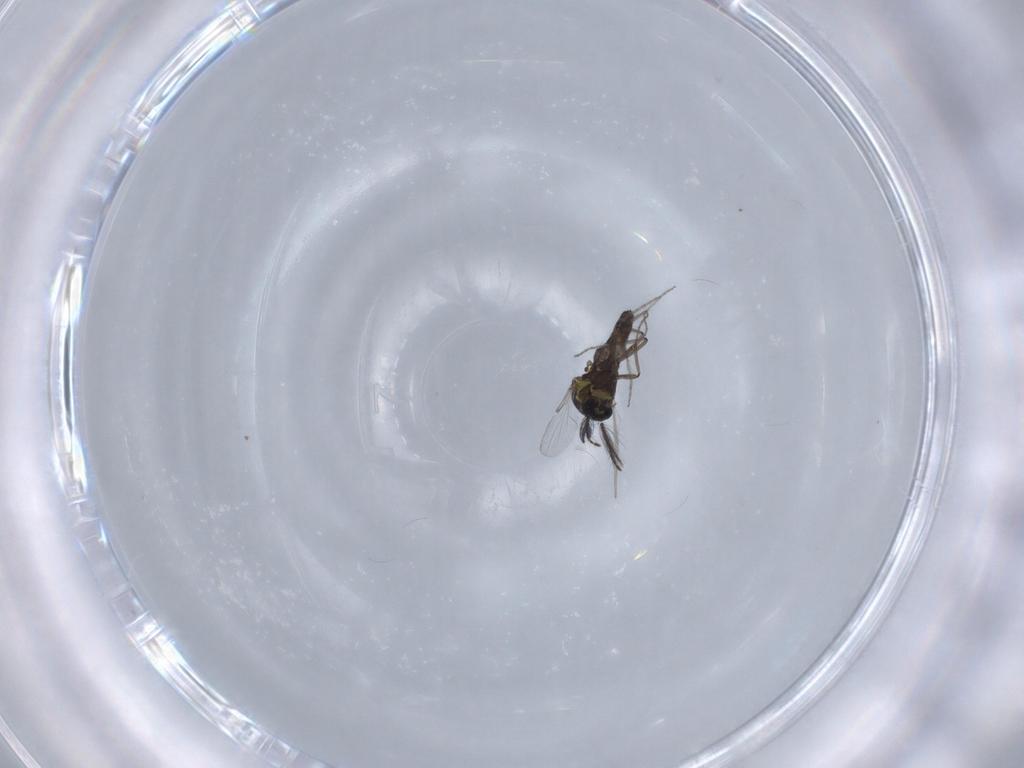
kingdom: Animalia
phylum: Arthropoda
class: Insecta
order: Diptera
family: Ceratopogonidae
